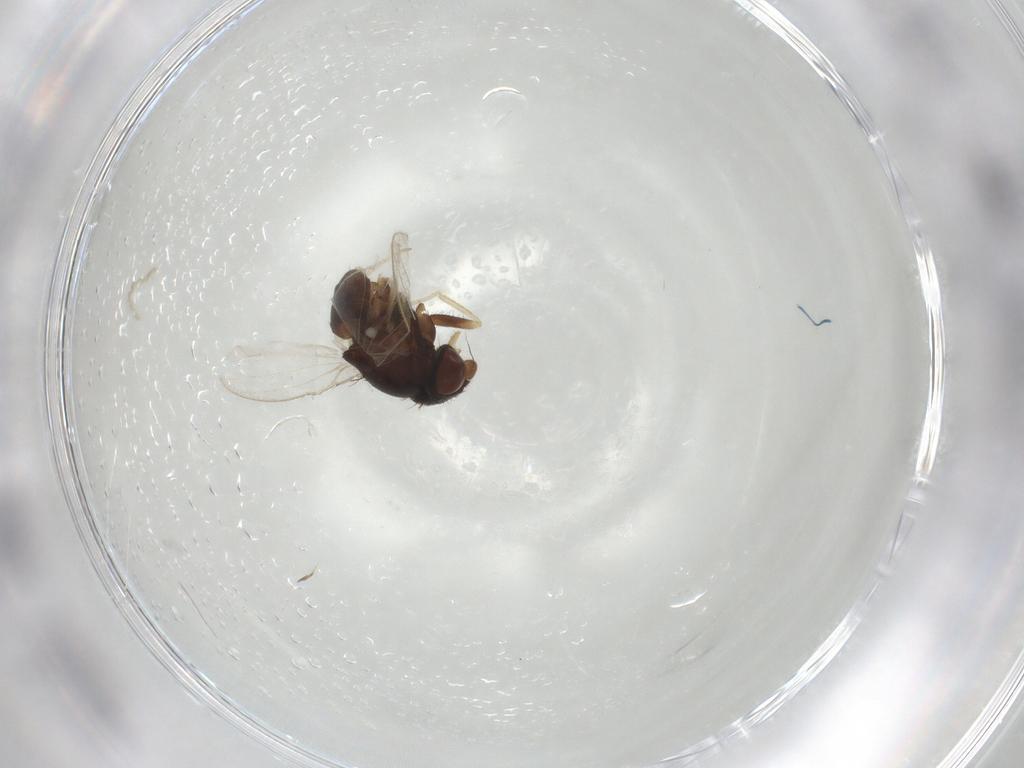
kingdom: Animalia
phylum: Arthropoda
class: Insecta
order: Diptera
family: Milichiidae
